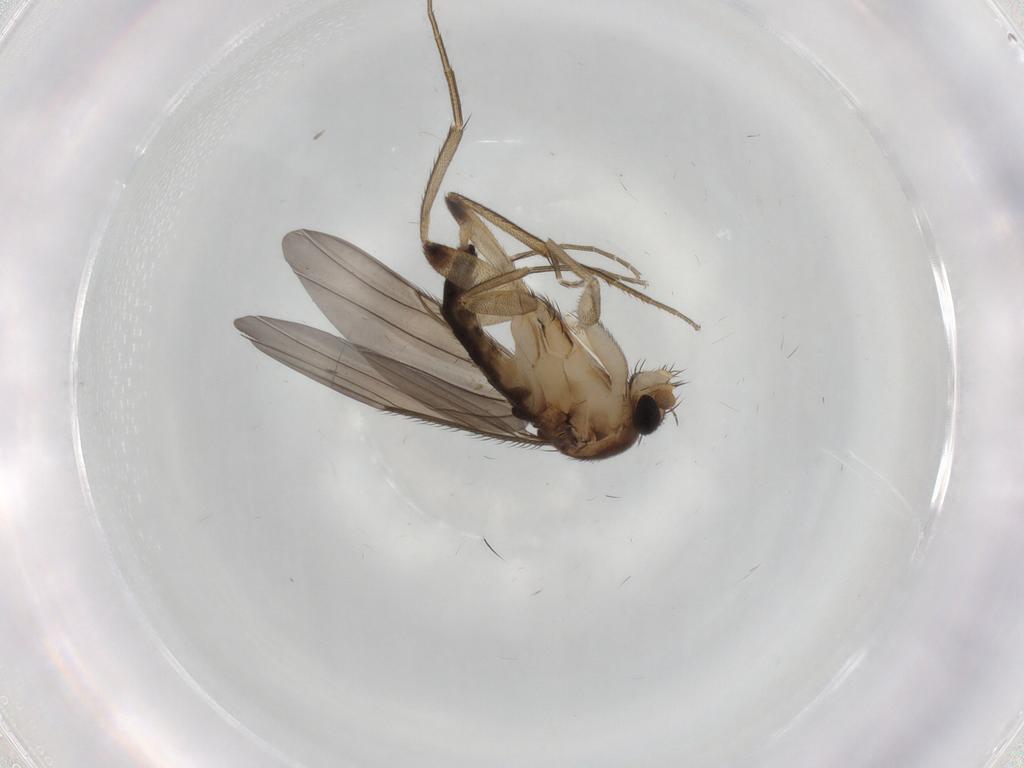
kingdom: Animalia
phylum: Arthropoda
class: Insecta
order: Diptera
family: Phoridae
